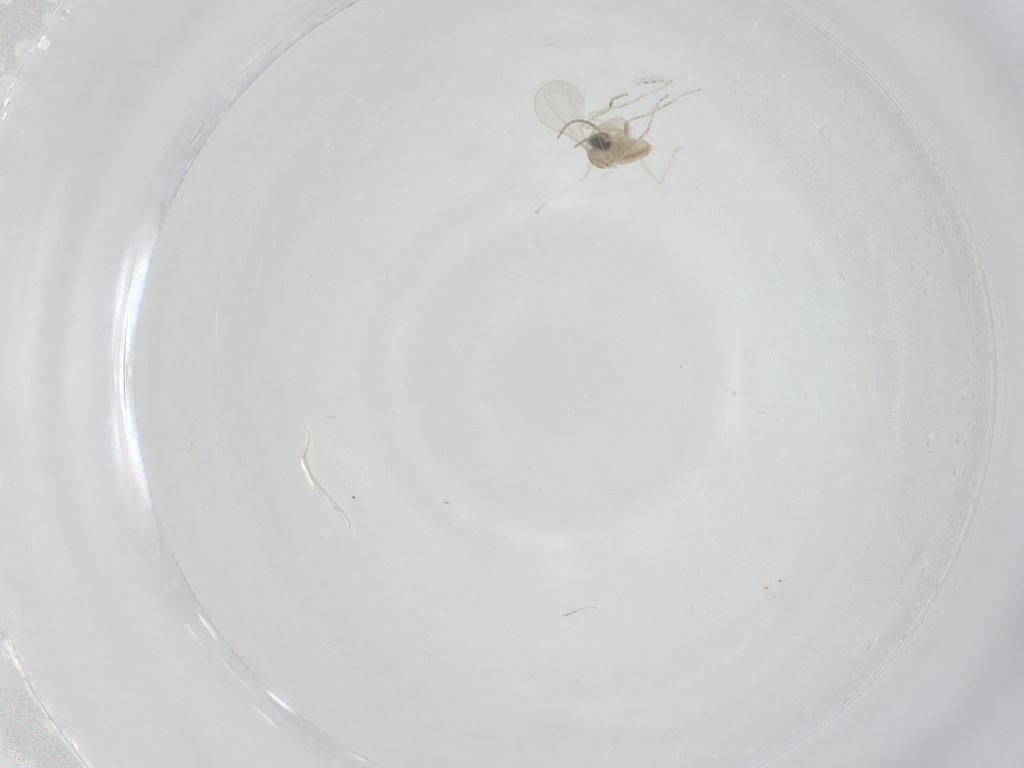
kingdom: Animalia
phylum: Arthropoda
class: Insecta
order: Diptera
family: Cecidomyiidae
